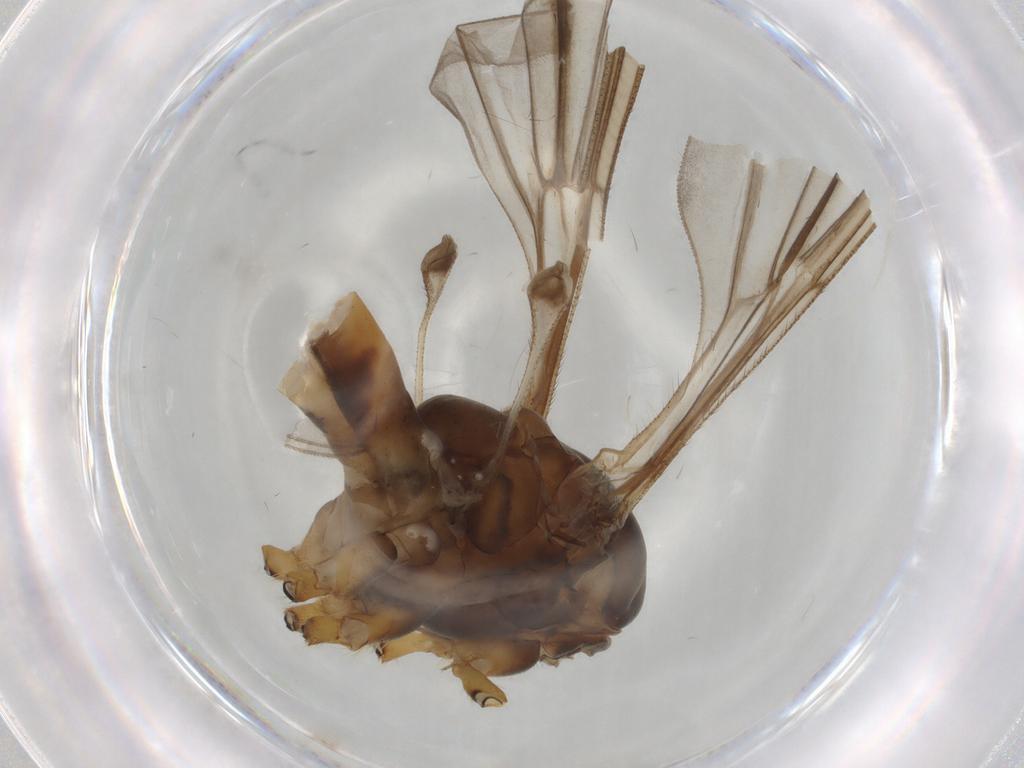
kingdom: Animalia
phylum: Arthropoda
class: Insecta
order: Diptera
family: Tipulidae
